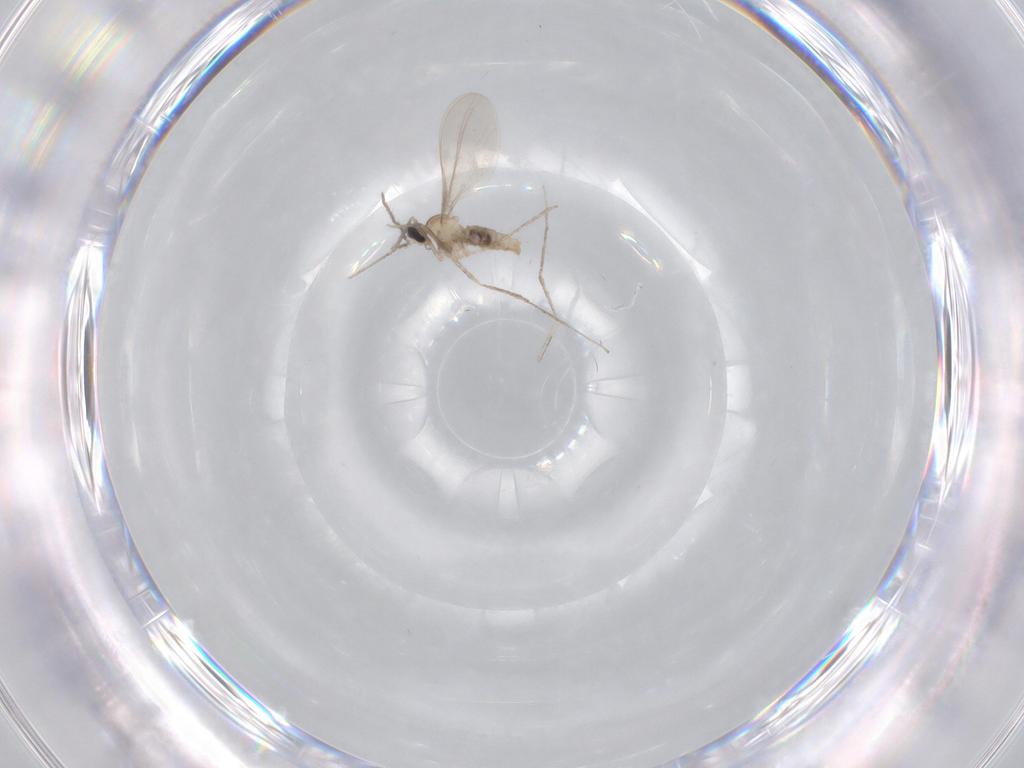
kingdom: Animalia
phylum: Arthropoda
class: Insecta
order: Diptera
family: Cecidomyiidae
